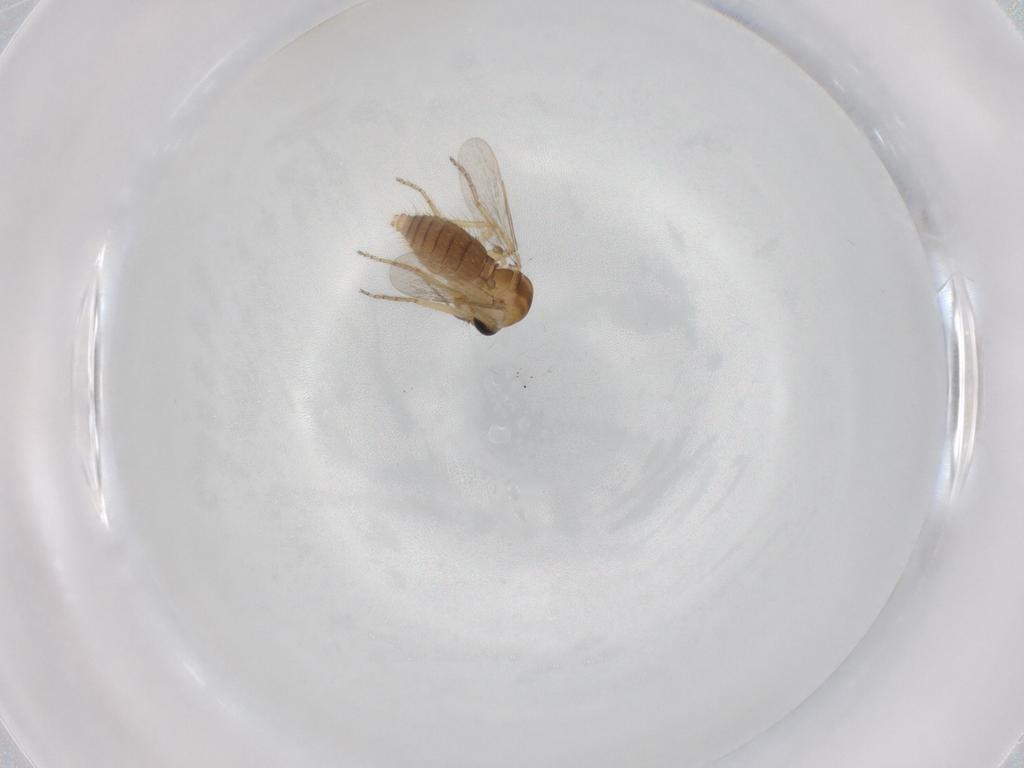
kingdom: Animalia
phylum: Arthropoda
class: Insecta
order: Diptera
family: Ceratopogonidae
